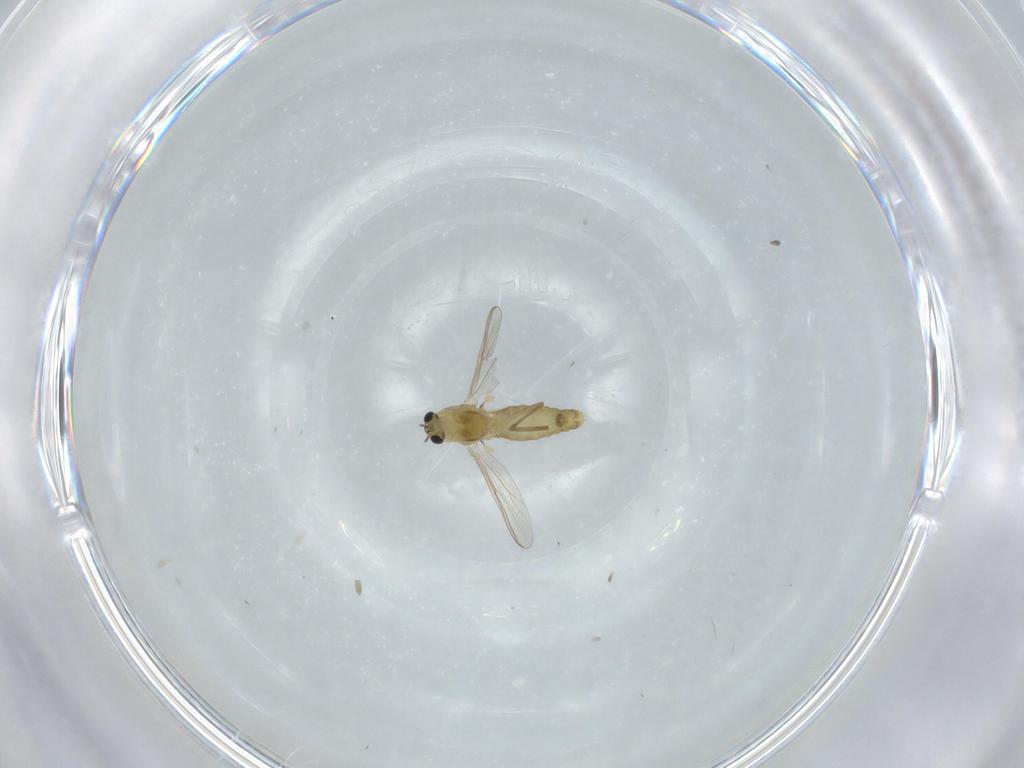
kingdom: Animalia
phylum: Arthropoda
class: Insecta
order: Diptera
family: Chironomidae
